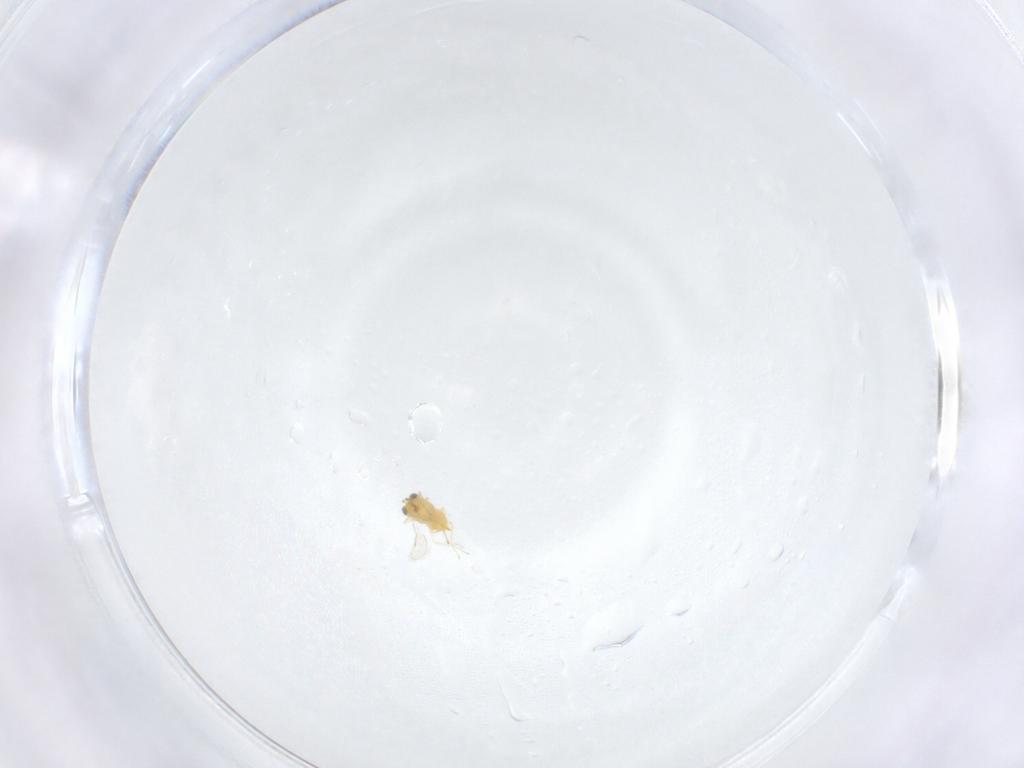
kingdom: Animalia
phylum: Arthropoda
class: Insecta
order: Hymenoptera
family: Aphelinidae
